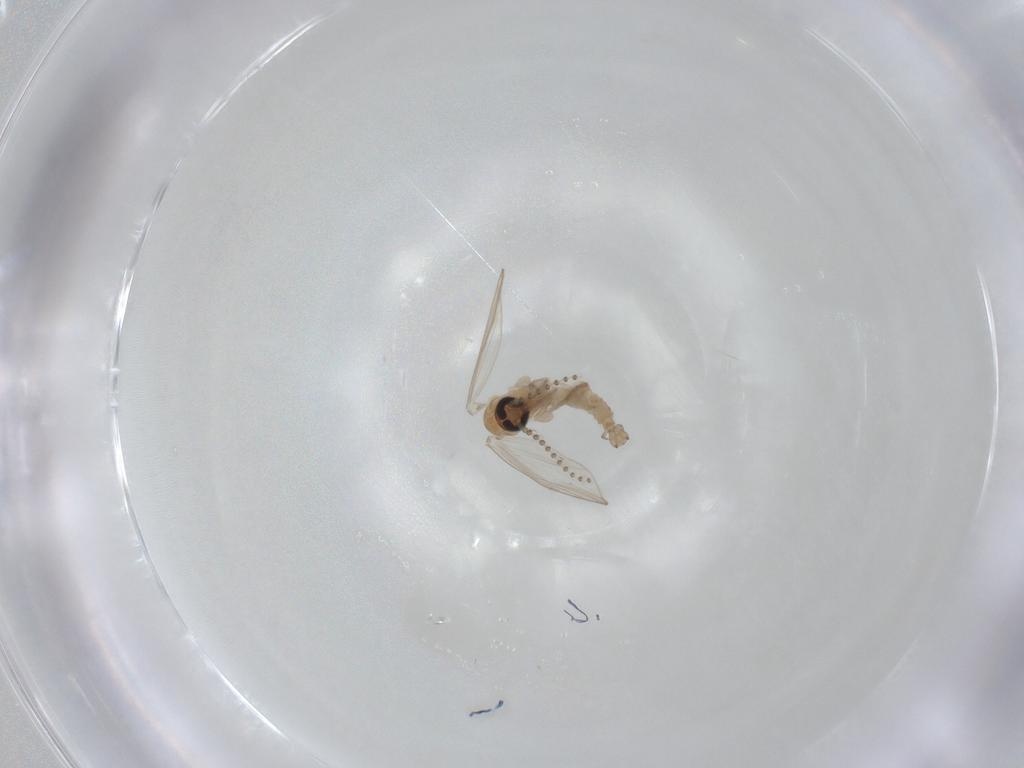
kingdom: Animalia
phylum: Arthropoda
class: Insecta
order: Diptera
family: Psychodidae
